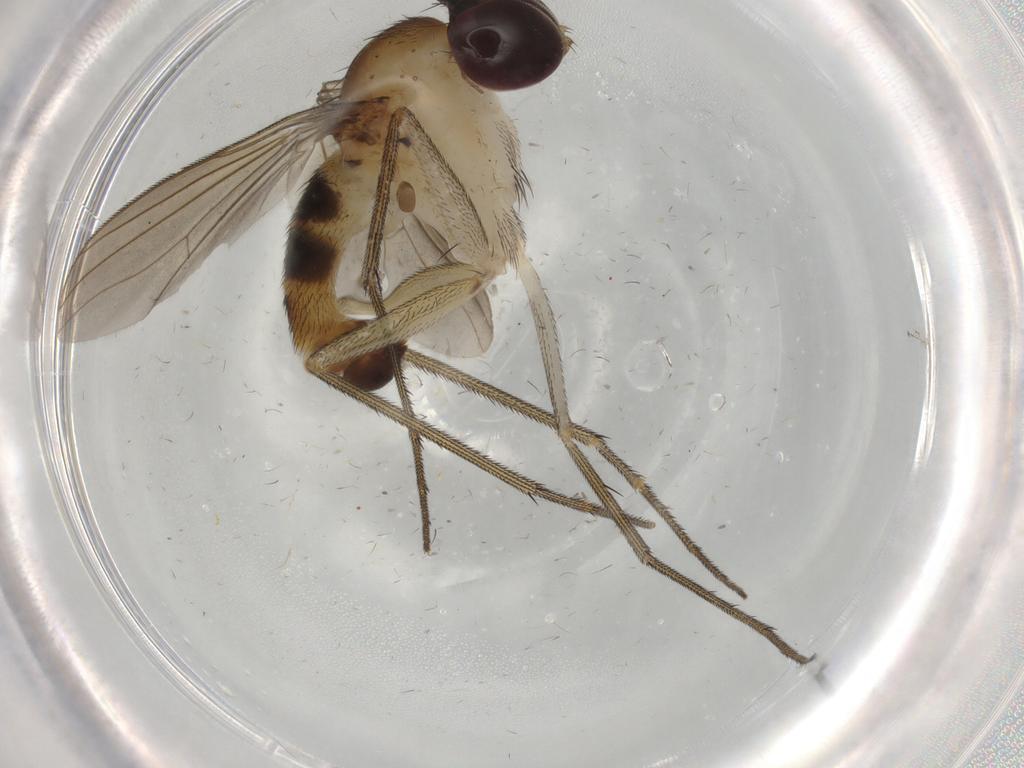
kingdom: Animalia
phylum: Arthropoda
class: Insecta
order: Diptera
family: Dolichopodidae
